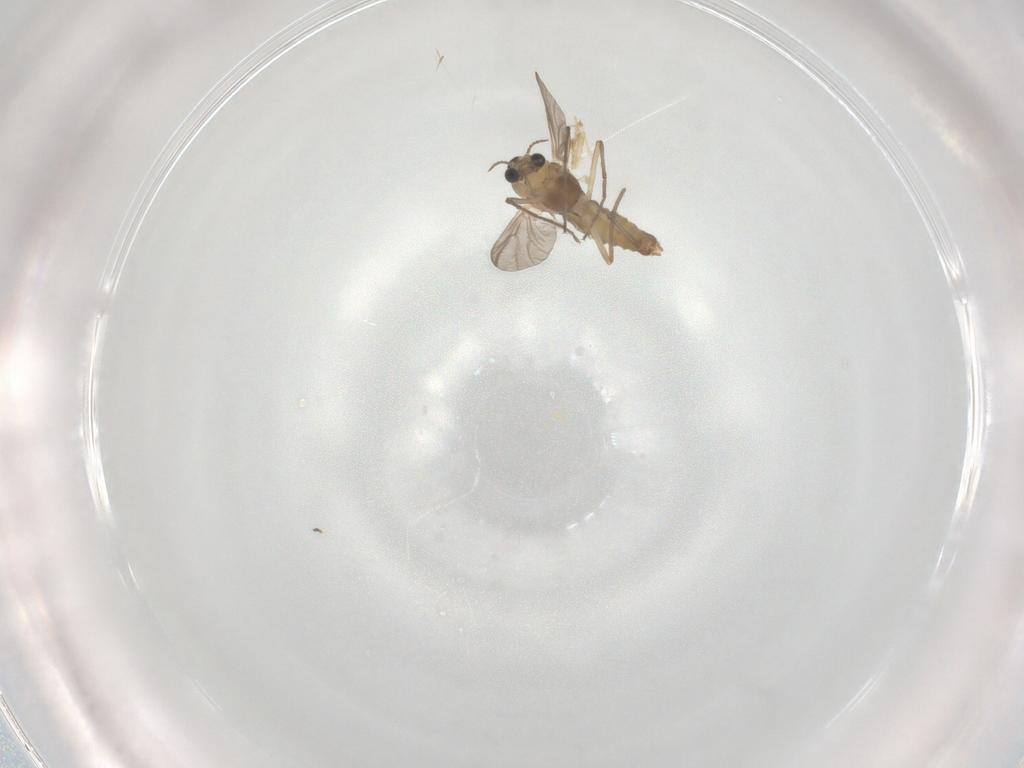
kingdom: Animalia
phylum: Arthropoda
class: Insecta
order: Diptera
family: Chironomidae
